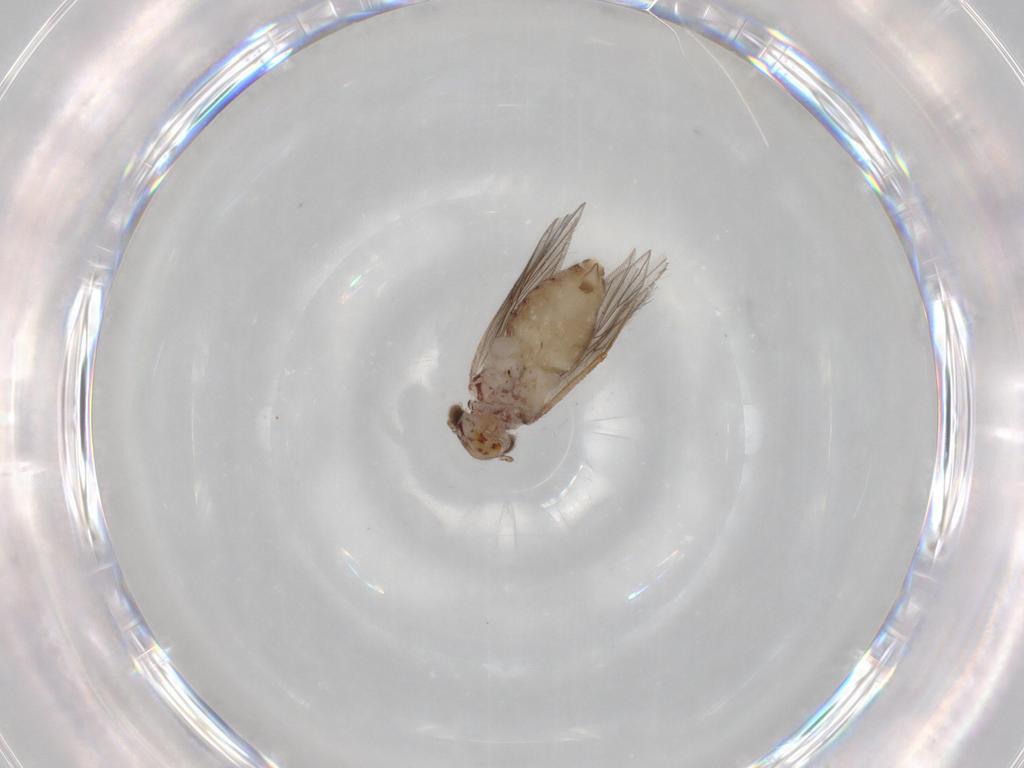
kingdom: Animalia
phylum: Arthropoda
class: Insecta
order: Psocodea
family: Lepidopsocidae
